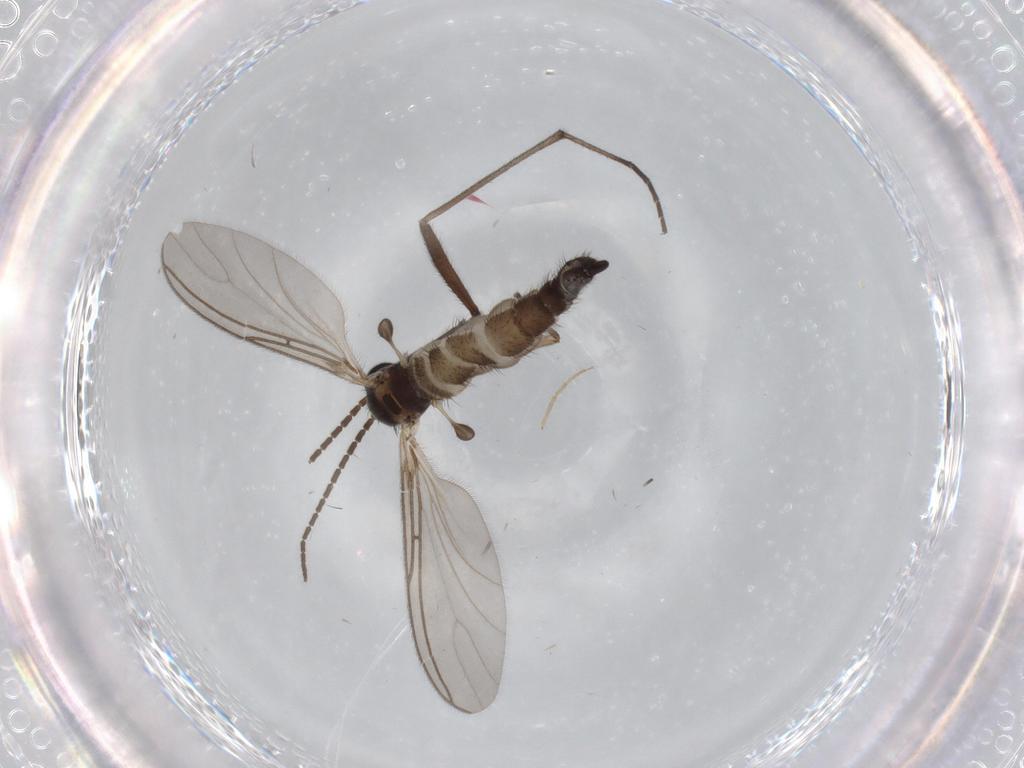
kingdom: Animalia
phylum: Arthropoda
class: Insecta
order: Diptera
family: Sciaridae
